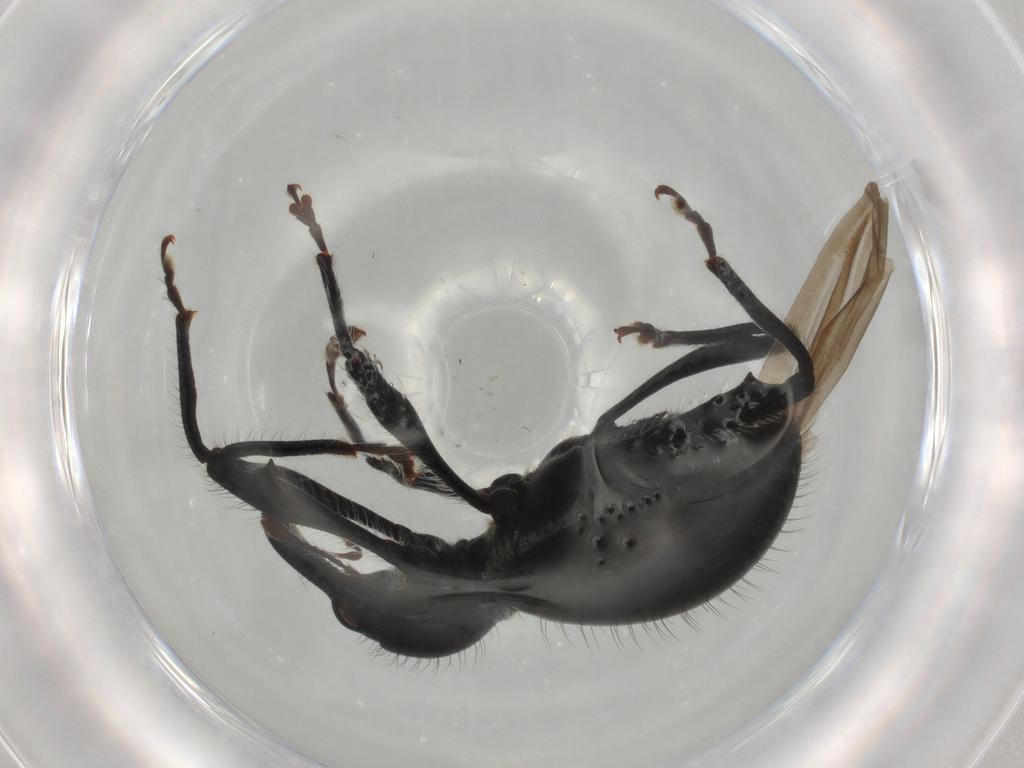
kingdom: Animalia
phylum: Arthropoda
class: Insecta
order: Coleoptera
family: Curculionidae
